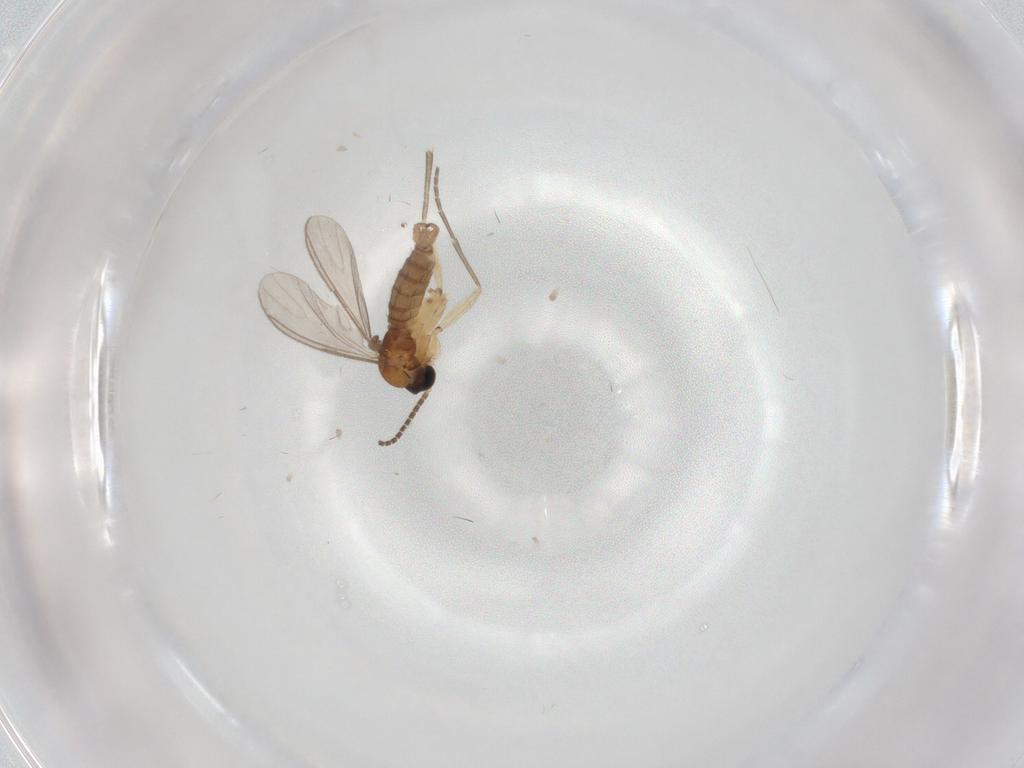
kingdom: Animalia
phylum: Arthropoda
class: Insecta
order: Diptera
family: Sciaridae
